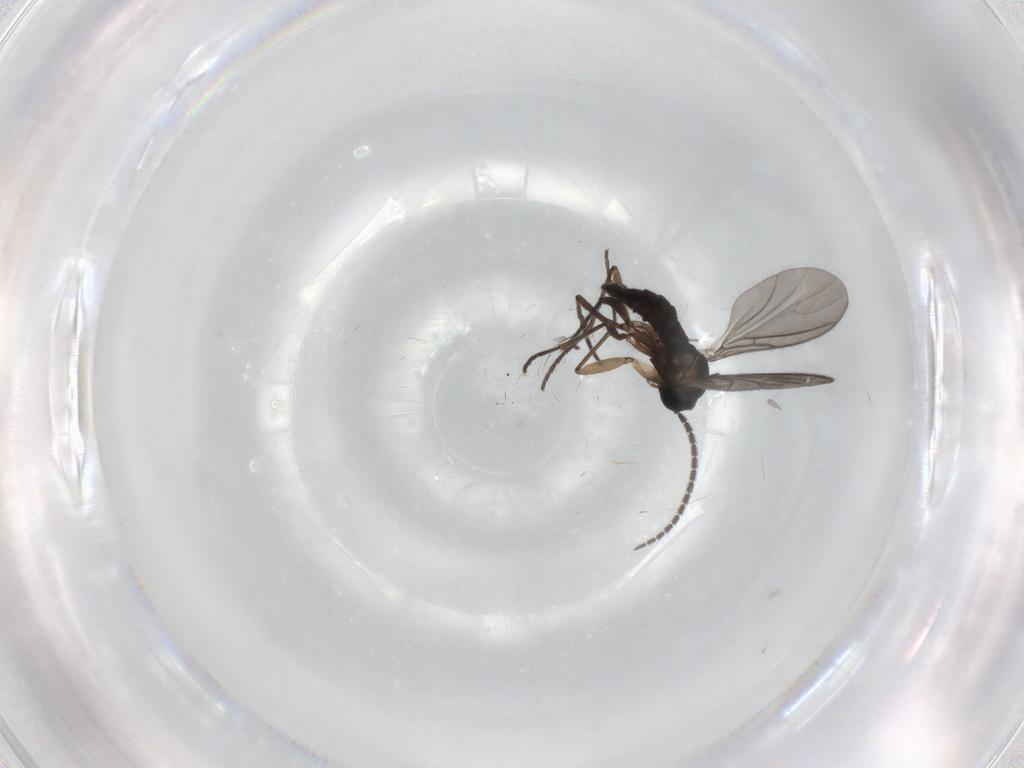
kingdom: Animalia
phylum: Arthropoda
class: Insecta
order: Diptera
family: Sciaridae
